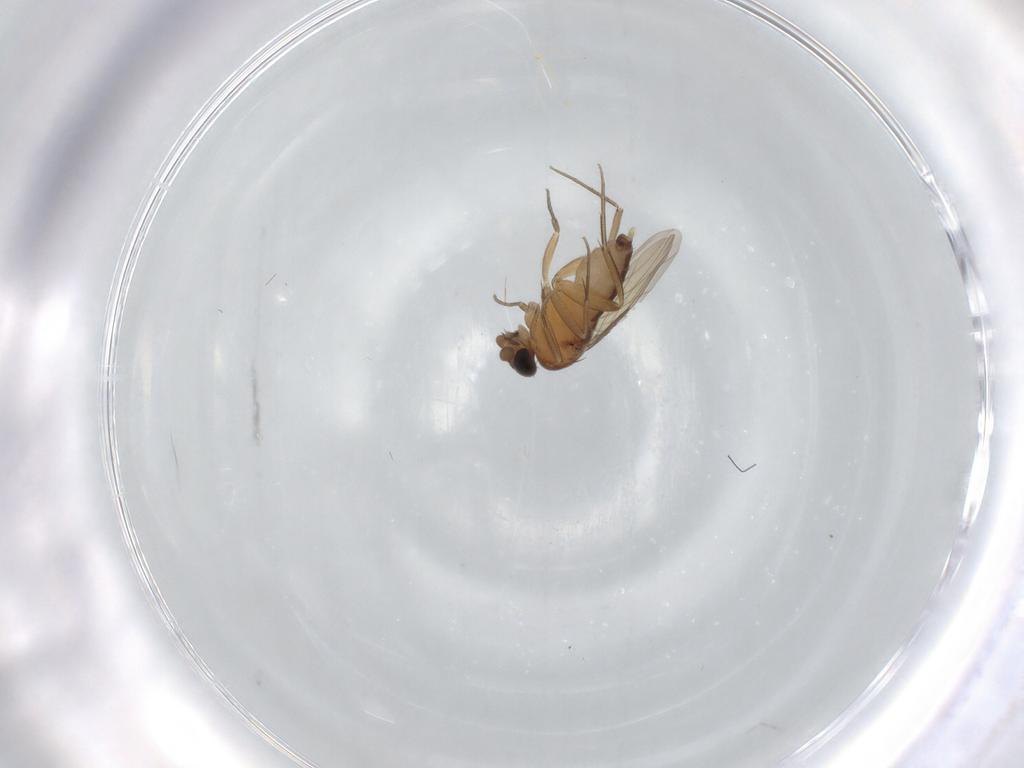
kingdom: Animalia
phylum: Arthropoda
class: Insecta
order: Diptera
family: Phoridae
